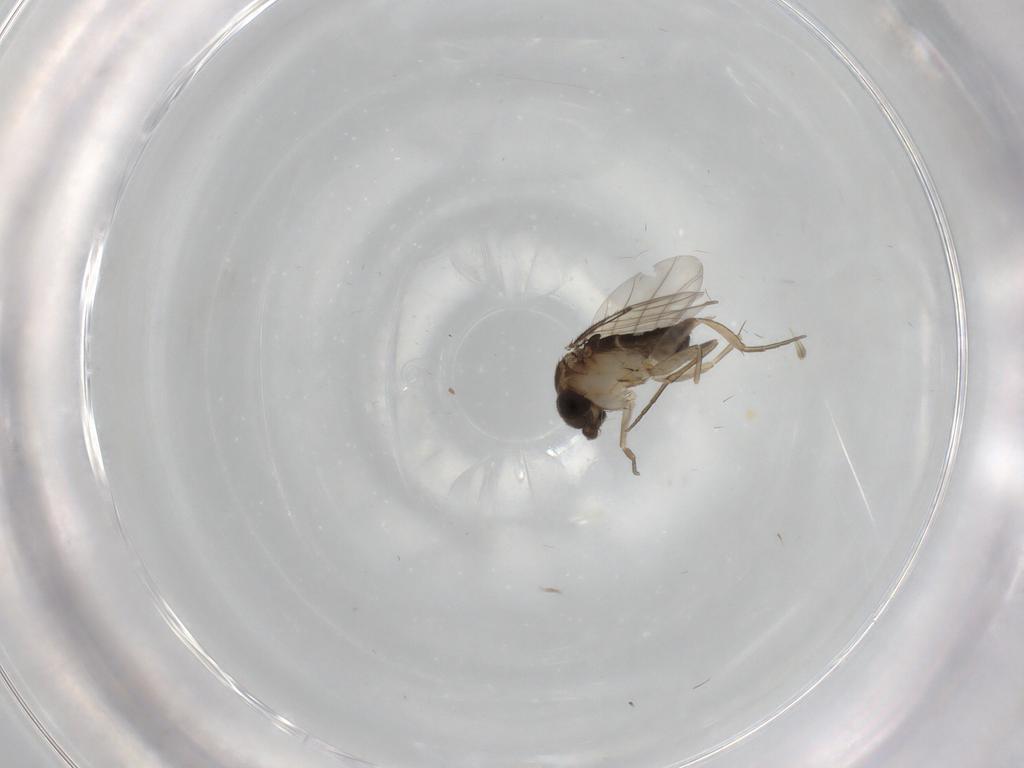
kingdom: Animalia
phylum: Arthropoda
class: Insecta
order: Diptera
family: Phoridae
